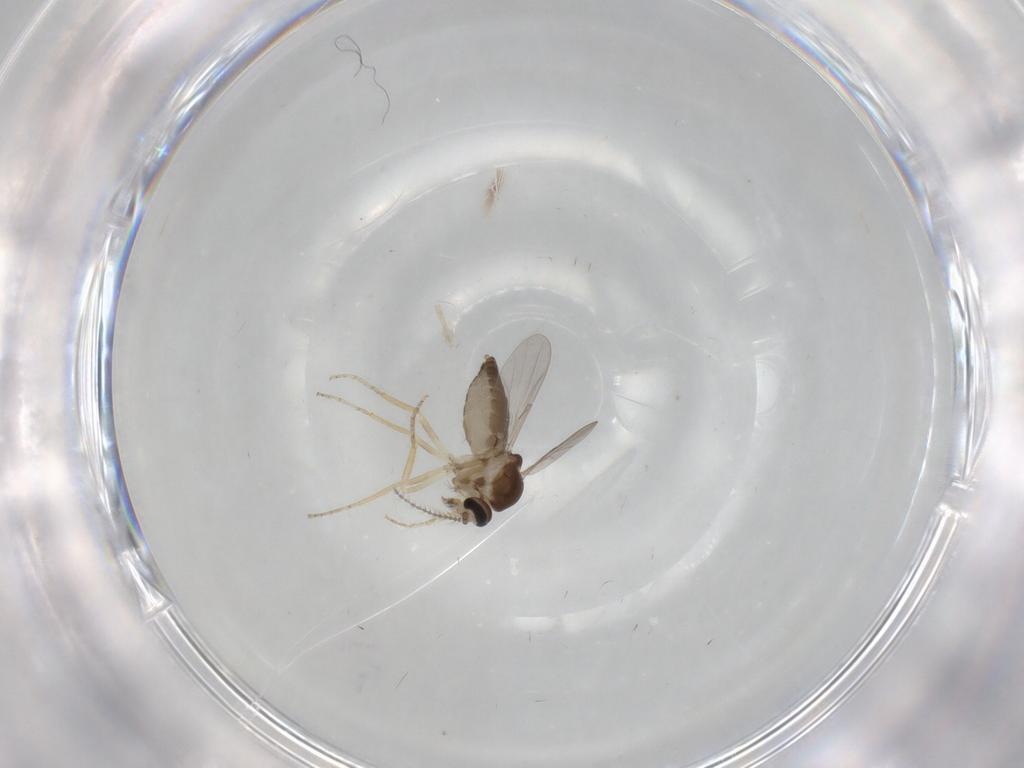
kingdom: Animalia
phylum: Arthropoda
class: Insecta
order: Diptera
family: Ceratopogonidae
